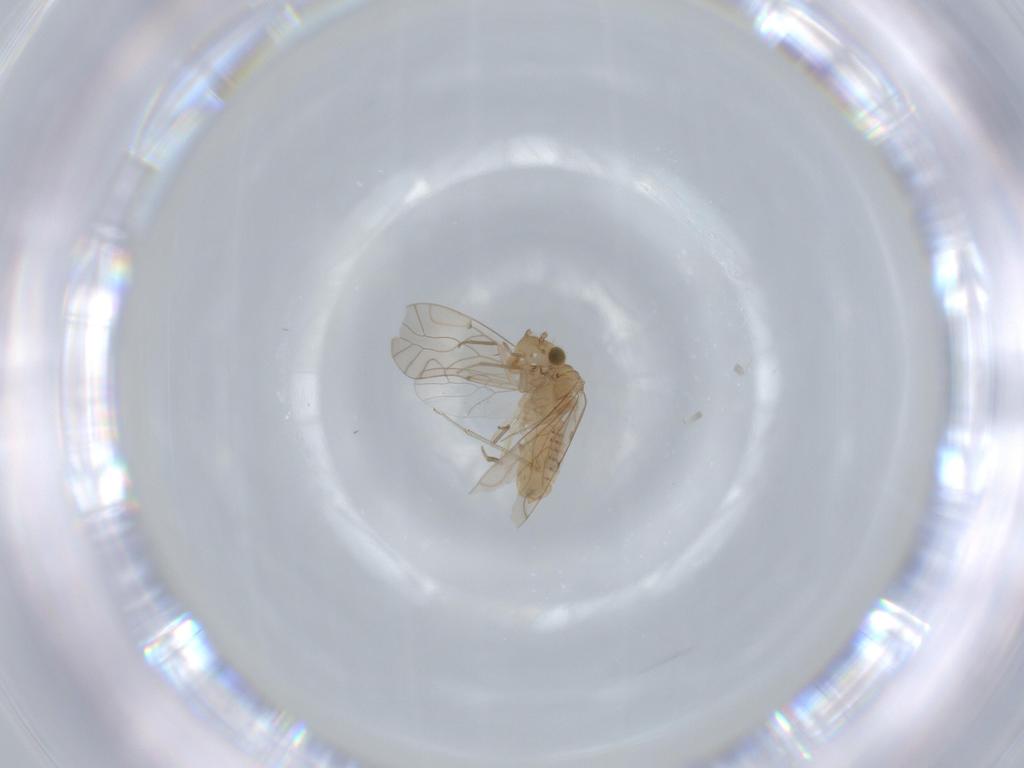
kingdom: Animalia
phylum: Arthropoda
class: Insecta
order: Psocodea
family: Lachesillidae
